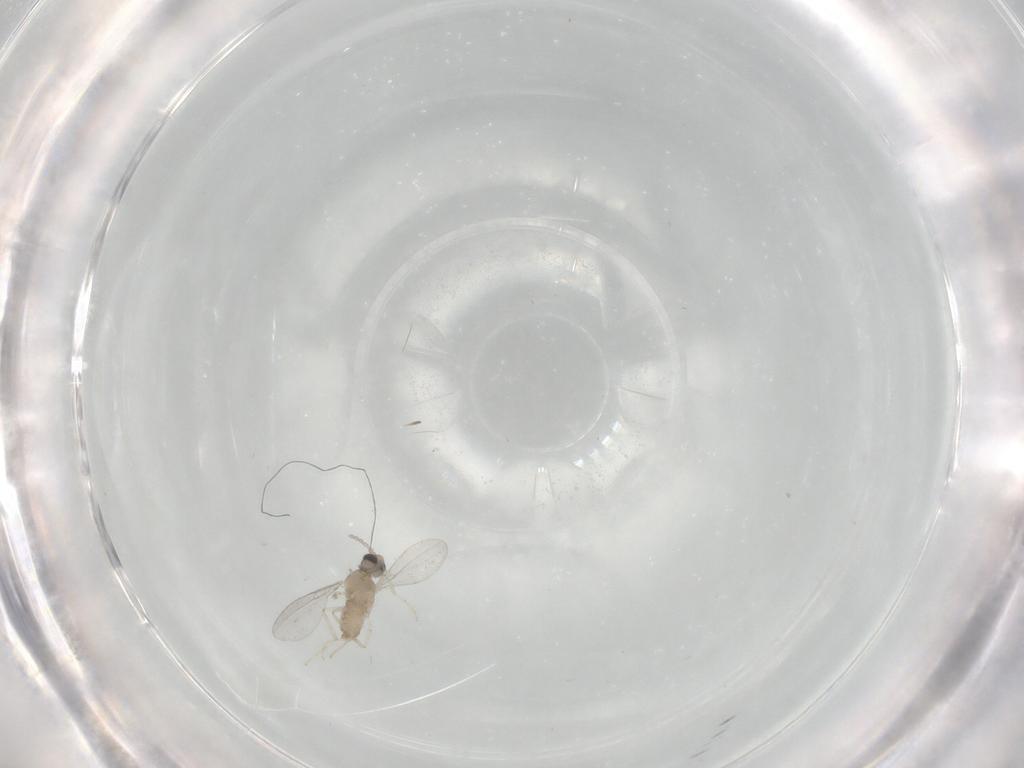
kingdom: Animalia
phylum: Arthropoda
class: Insecta
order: Diptera
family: Cecidomyiidae
